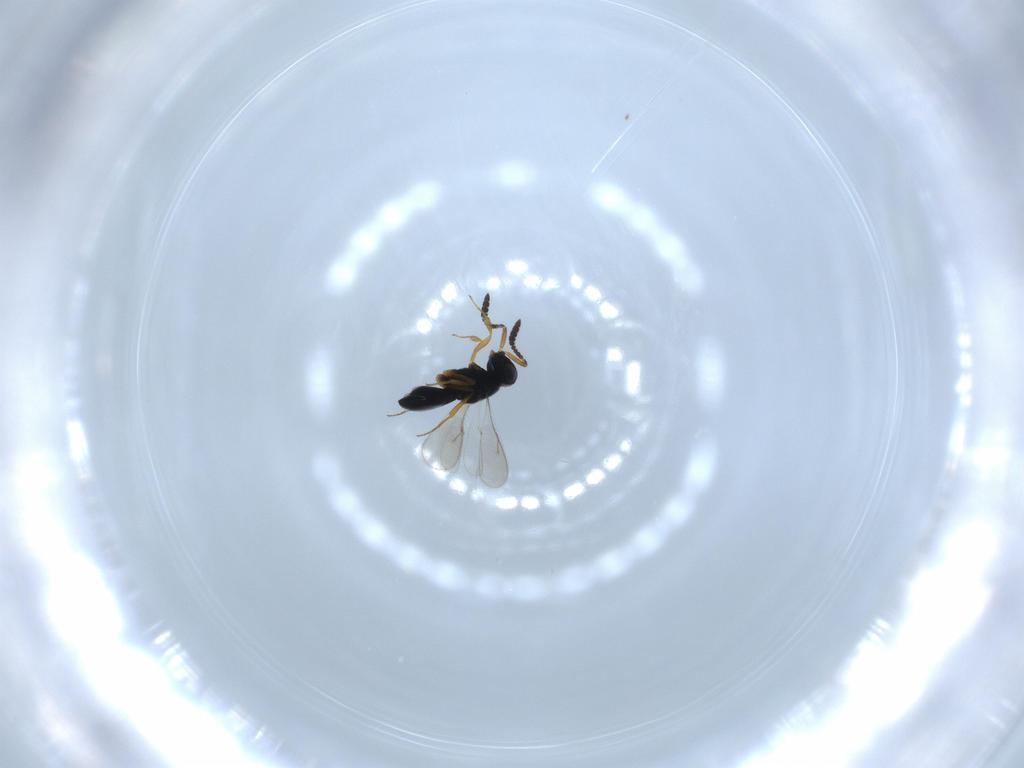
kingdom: Animalia
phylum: Arthropoda
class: Insecta
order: Hymenoptera
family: Scelionidae
